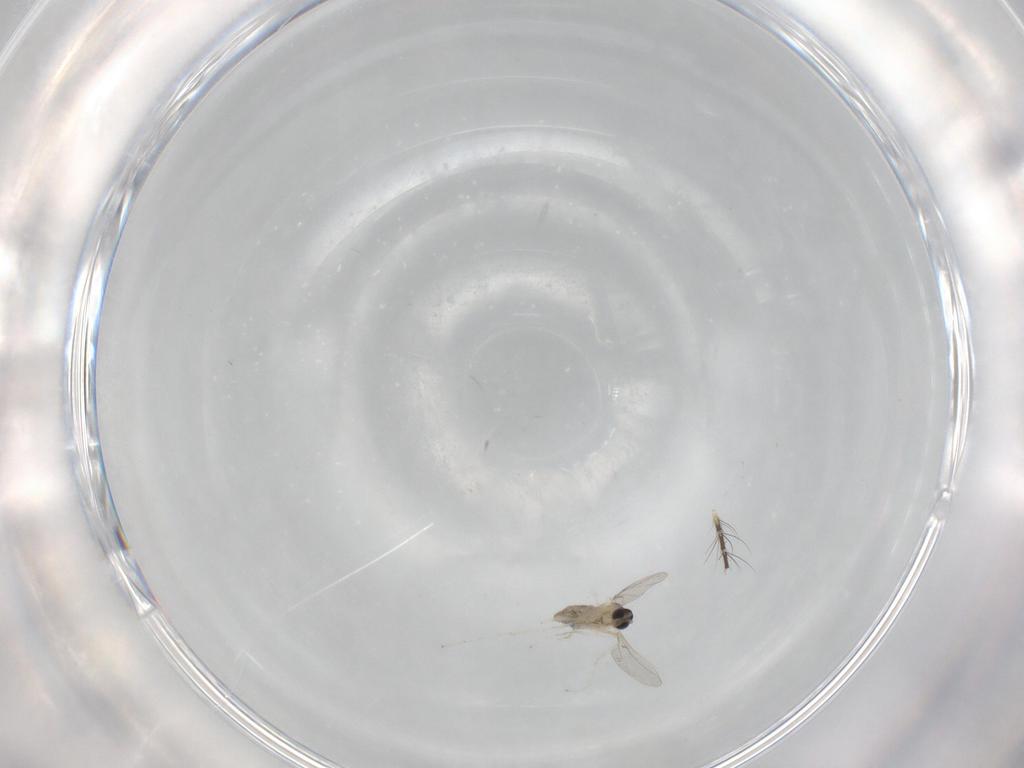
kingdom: Animalia
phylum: Arthropoda
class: Insecta
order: Diptera
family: Cecidomyiidae
